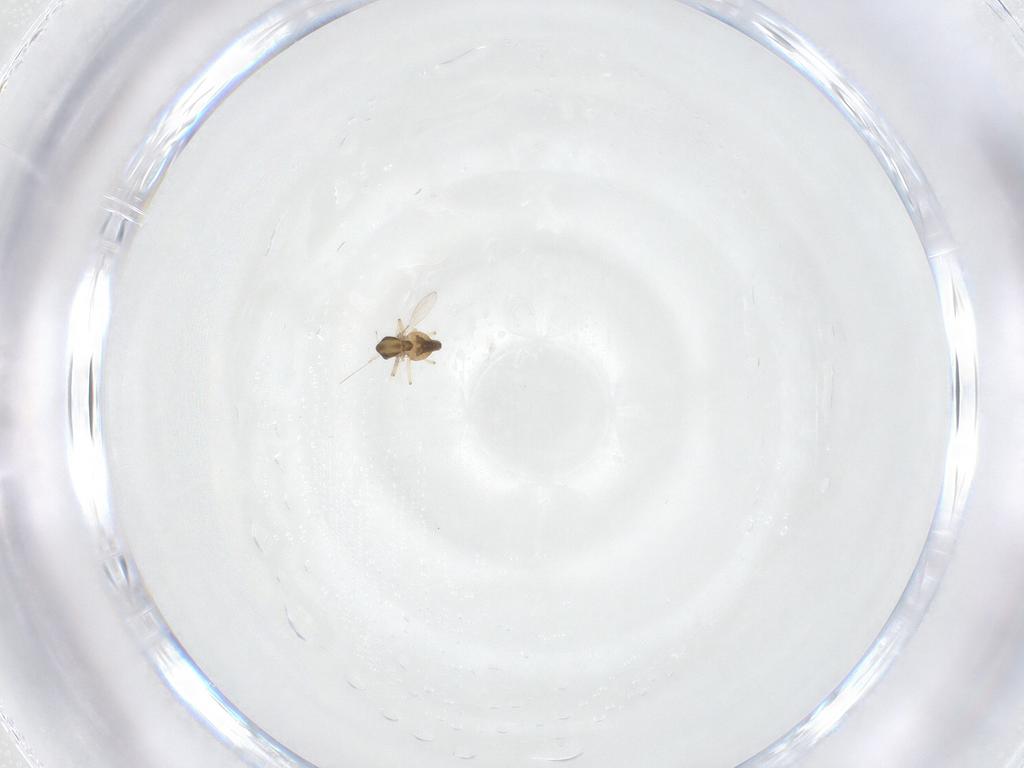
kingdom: Animalia
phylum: Arthropoda
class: Insecta
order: Diptera
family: Chironomidae
